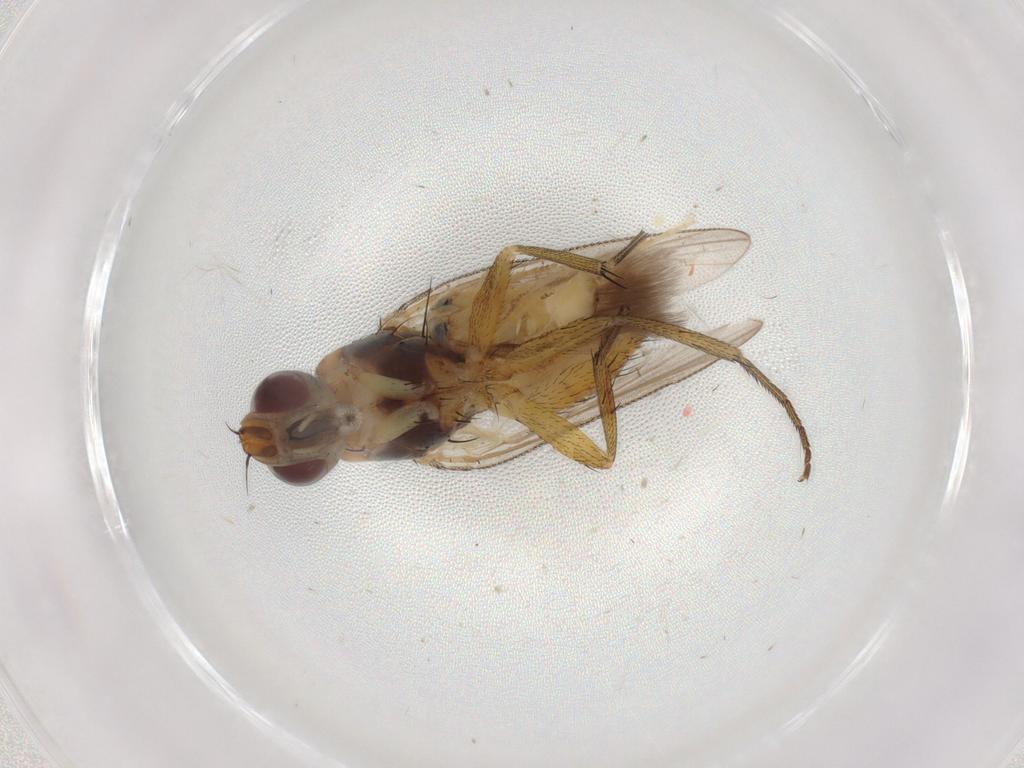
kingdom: Animalia
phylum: Arthropoda
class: Insecta
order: Diptera
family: Muscidae
